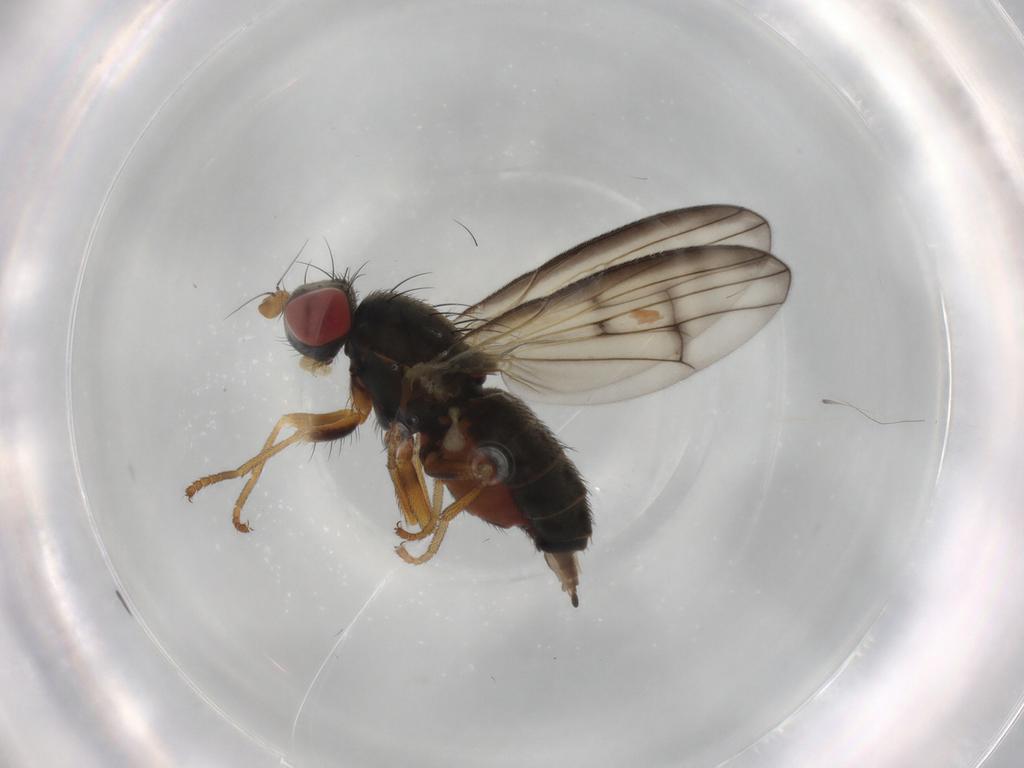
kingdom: Animalia
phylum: Arthropoda
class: Insecta
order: Diptera
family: Chamaemyiidae
